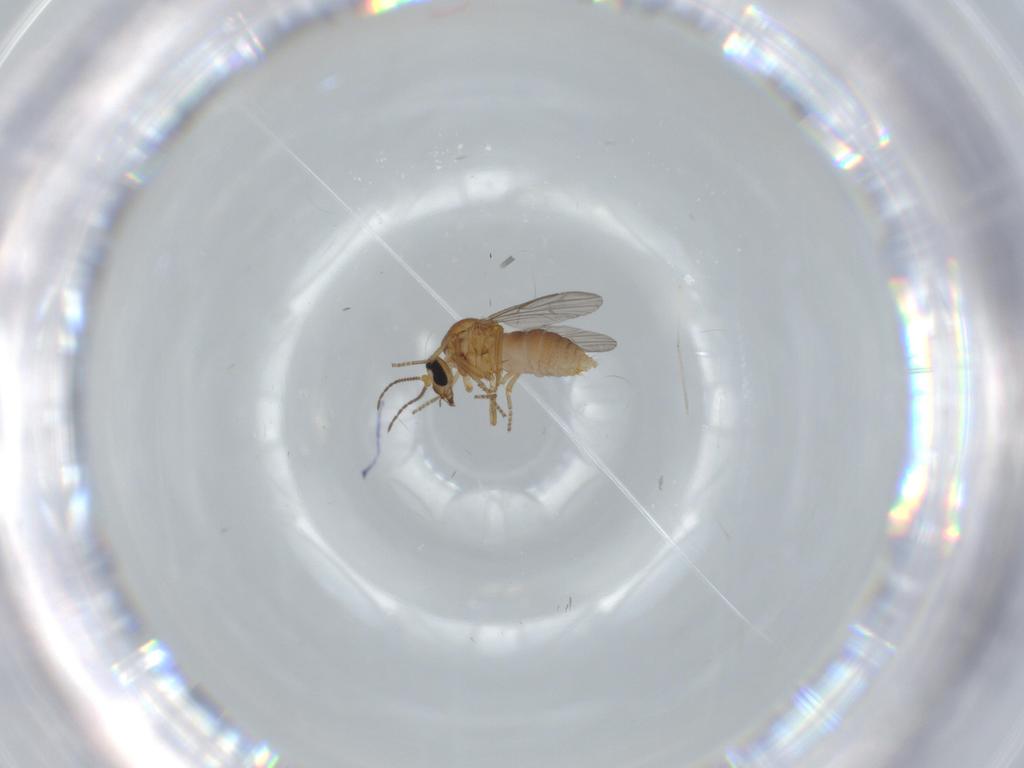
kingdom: Animalia
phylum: Arthropoda
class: Insecta
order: Diptera
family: Ceratopogonidae
